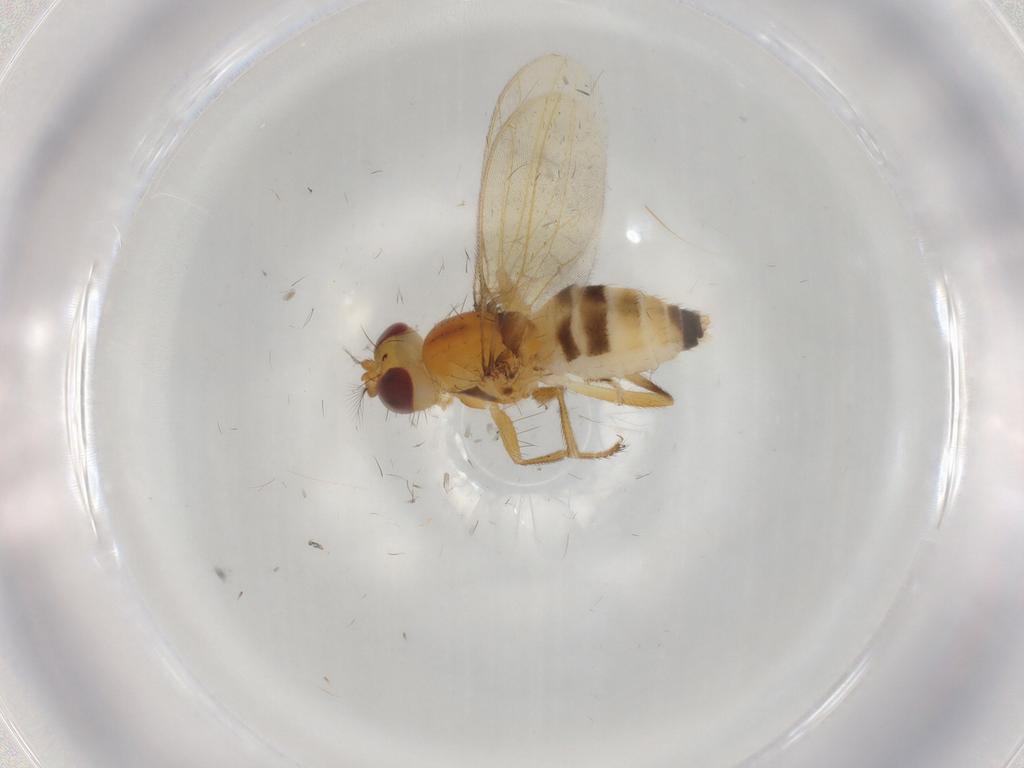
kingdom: Animalia
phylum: Arthropoda
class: Insecta
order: Diptera
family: Periscelididae
